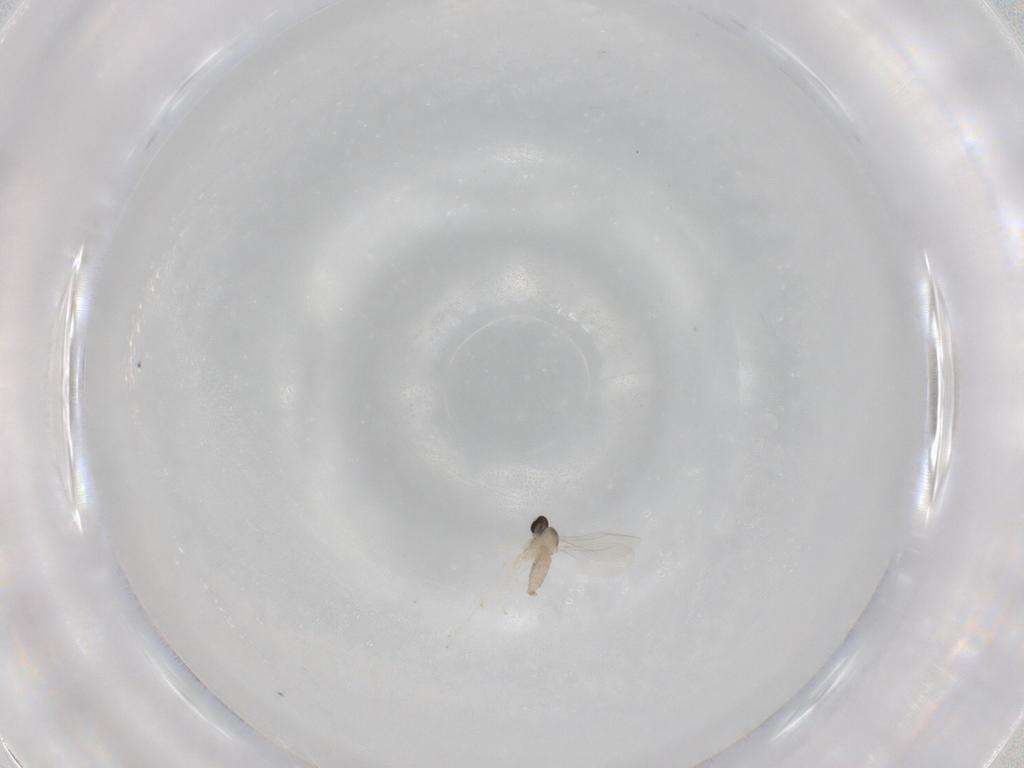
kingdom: Animalia
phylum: Arthropoda
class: Insecta
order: Diptera
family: Cecidomyiidae
